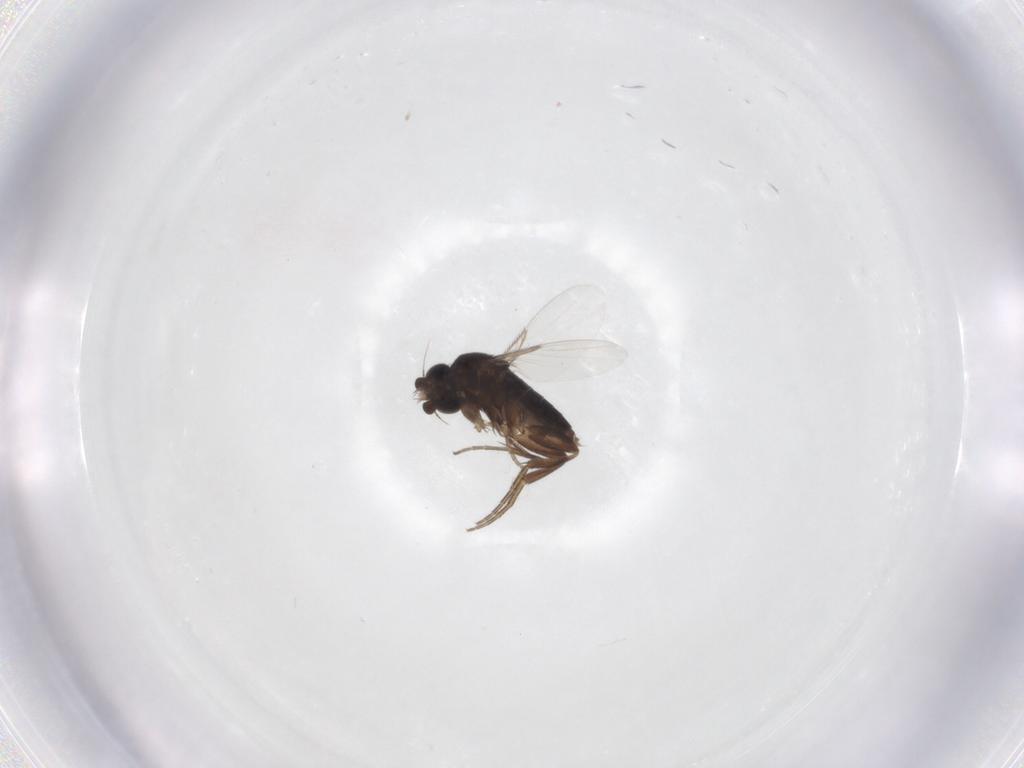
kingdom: Animalia
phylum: Arthropoda
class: Insecta
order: Diptera
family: Phoridae
